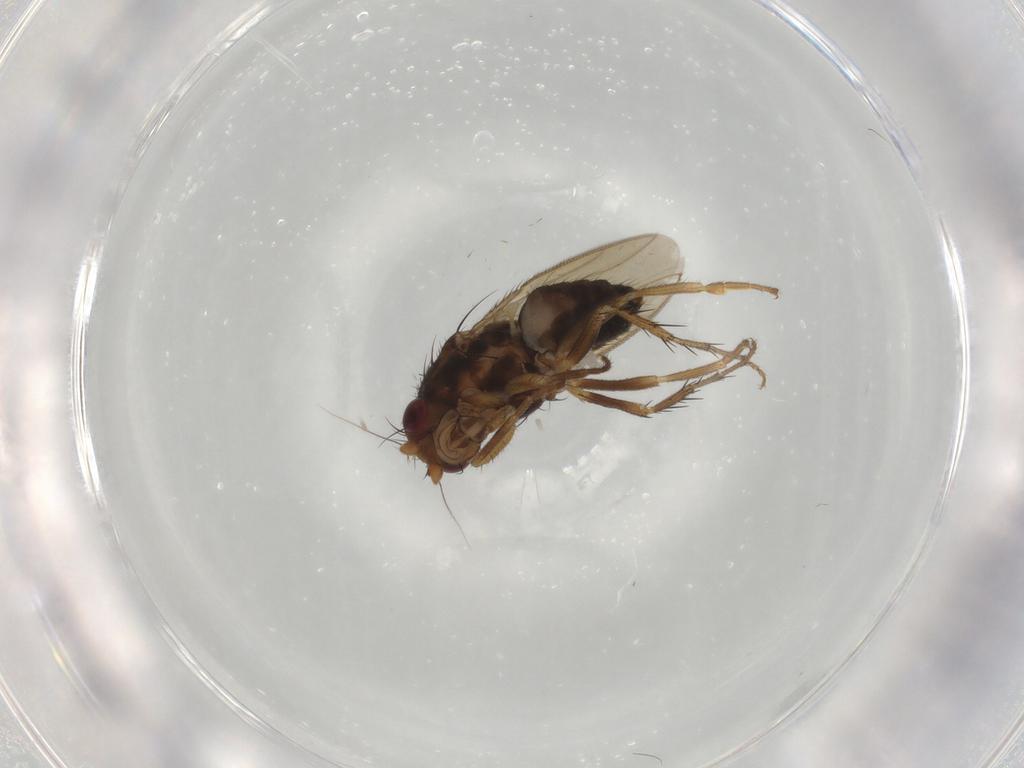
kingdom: Animalia
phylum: Arthropoda
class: Insecta
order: Diptera
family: Sphaeroceridae
